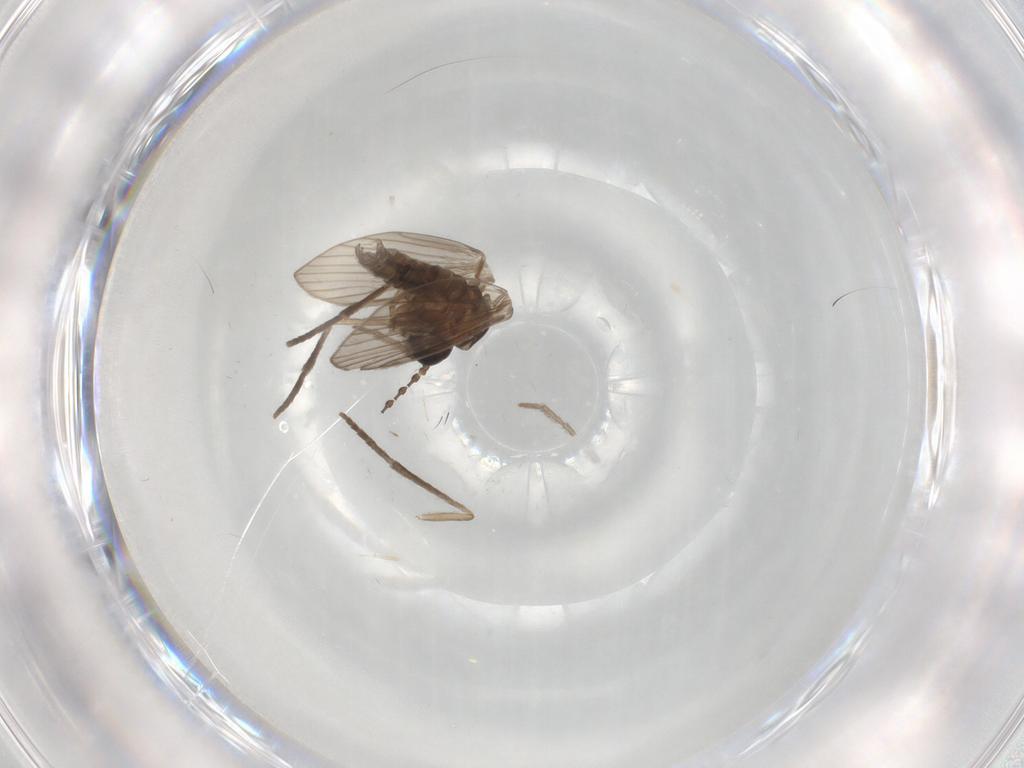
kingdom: Animalia
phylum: Arthropoda
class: Insecta
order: Diptera
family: Psychodidae
